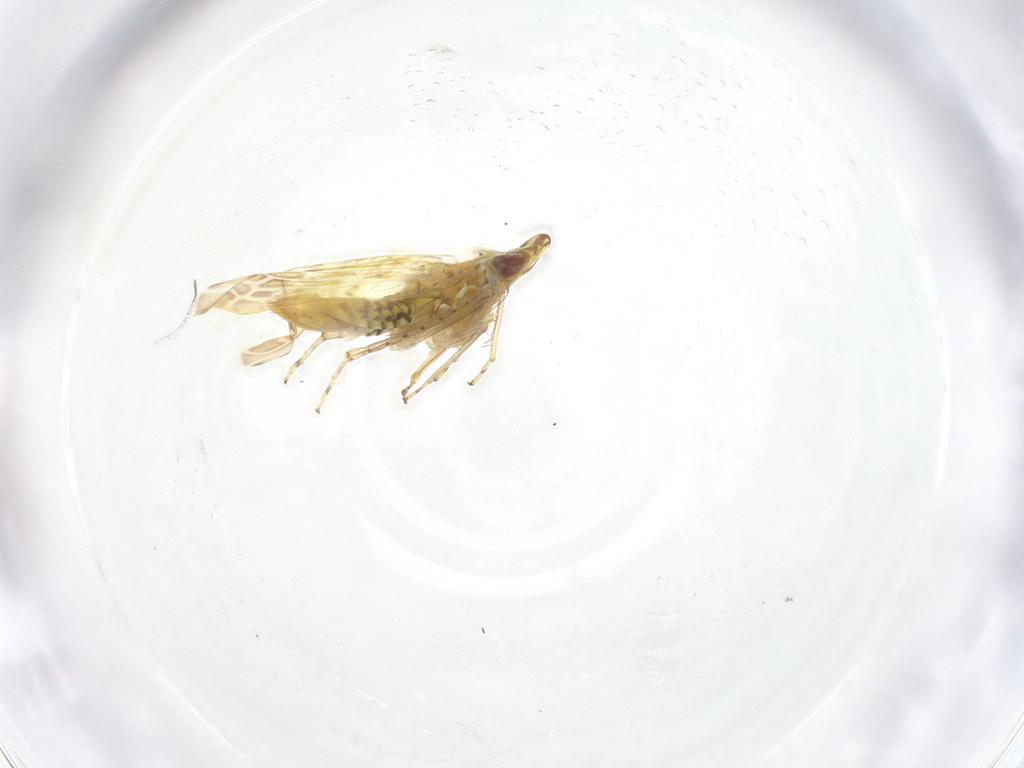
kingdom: Animalia
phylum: Arthropoda
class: Insecta
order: Hemiptera
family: Cicadellidae
